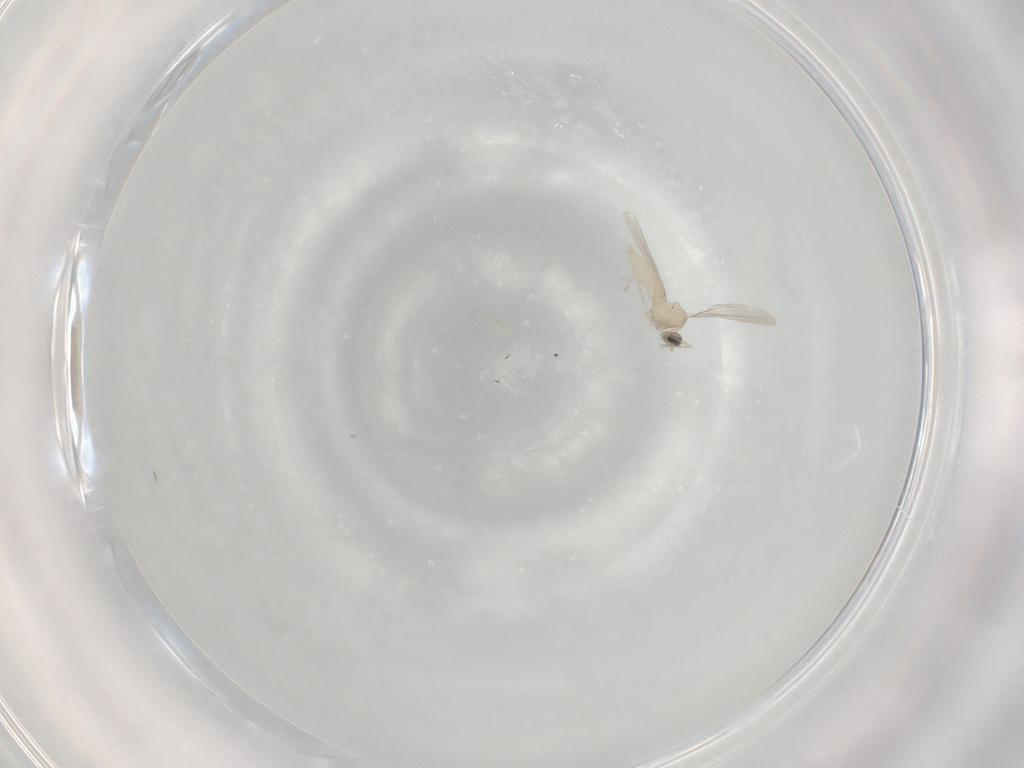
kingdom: Animalia
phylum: Arthropoda
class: Insecta
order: Diptera
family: Cecidomyiidae
